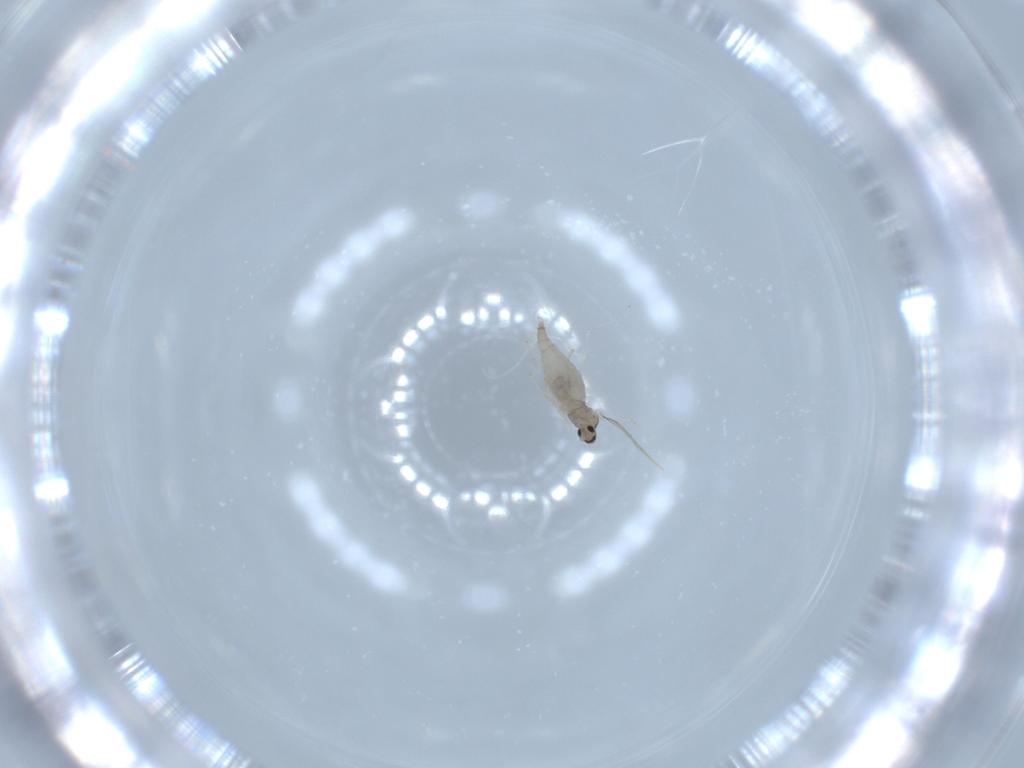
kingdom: Animalia
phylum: Arthropoda
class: Insecta
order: Diptera
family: Cecidomyiidae
